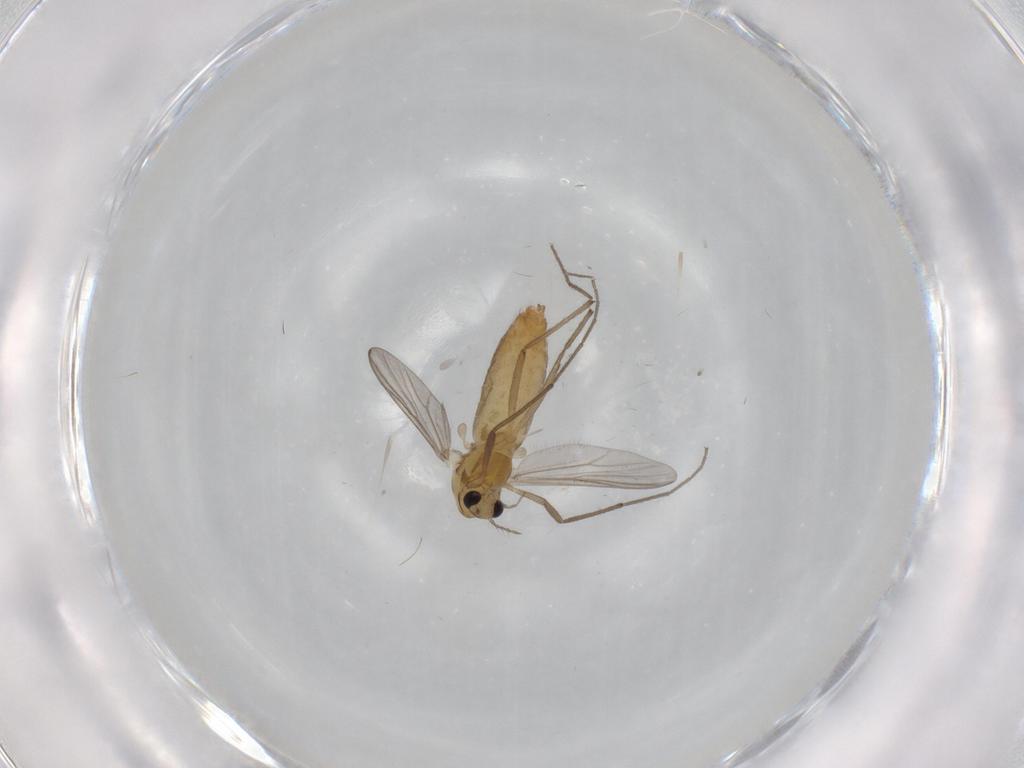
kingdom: Animalia
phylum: Arthropoda
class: Insecta
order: Diptera
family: Chironomidae
